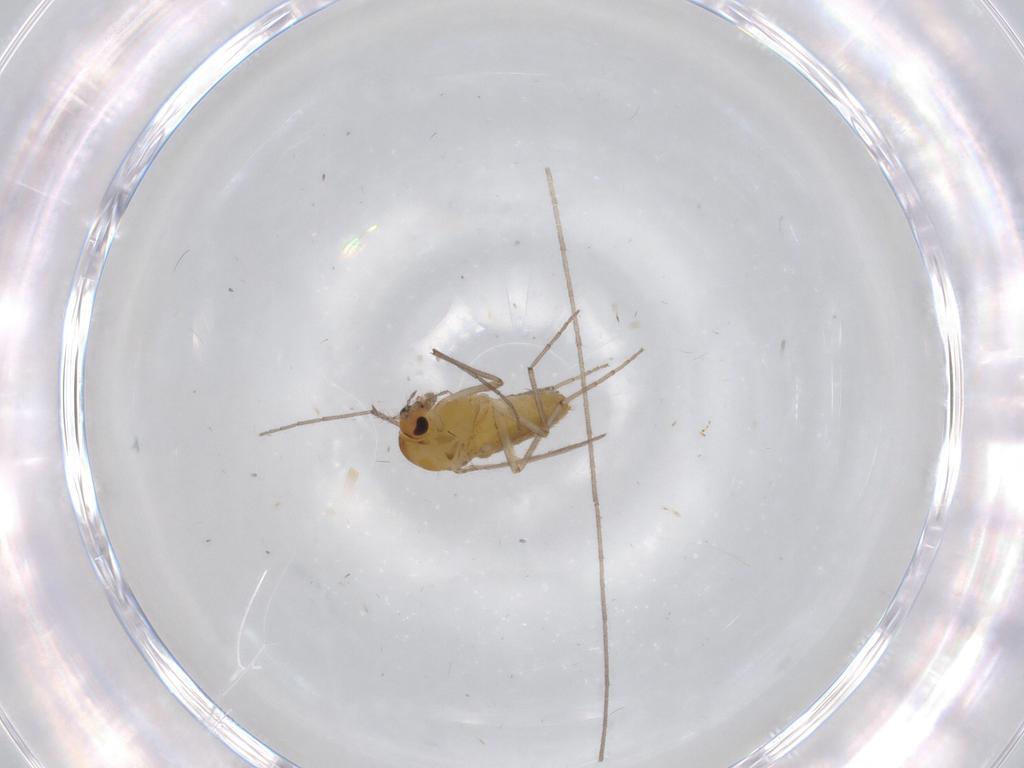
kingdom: Animalia
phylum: Arthropoda
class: Insecta
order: Diptera
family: Chironomidae
